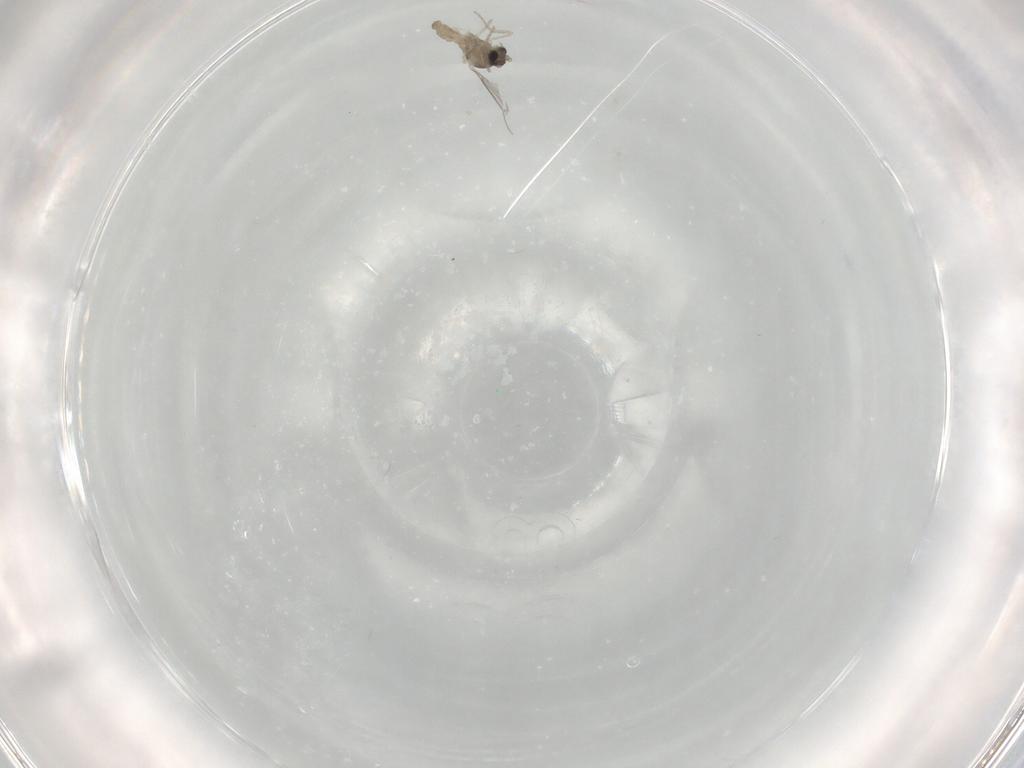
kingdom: Animalia
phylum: Arthropoda
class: Insecta
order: Diptera
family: Cecidomyiidae
